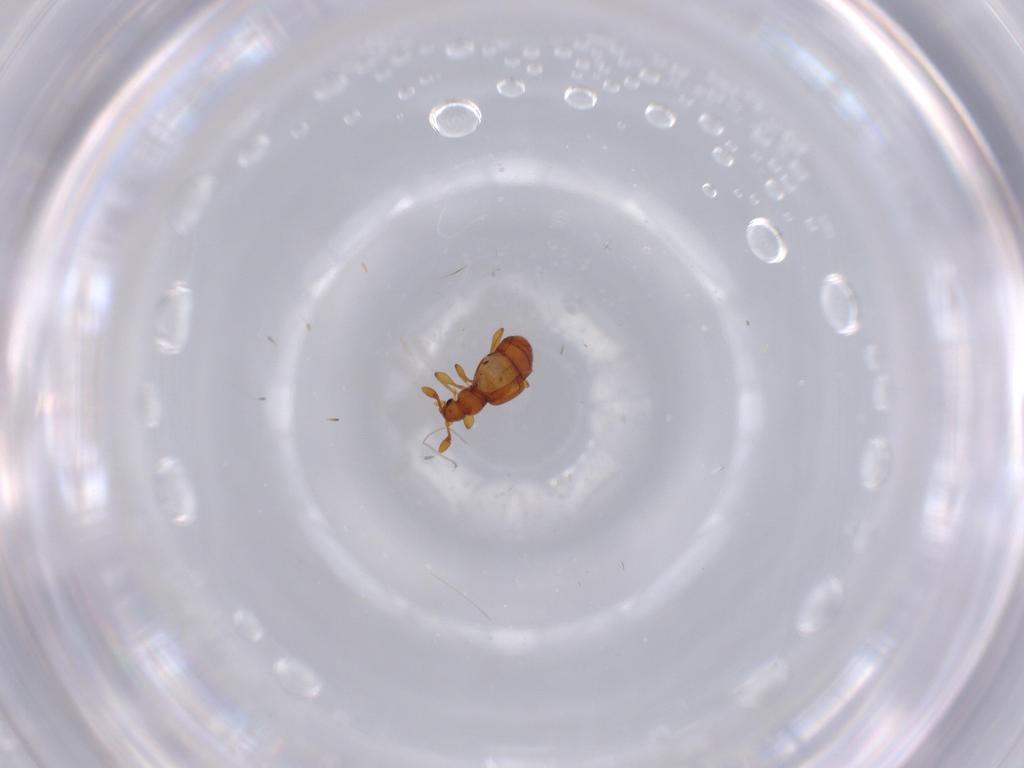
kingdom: Animalia
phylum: Arthropoda
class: Insecta
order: Coleoptera
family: Staphylinidae
